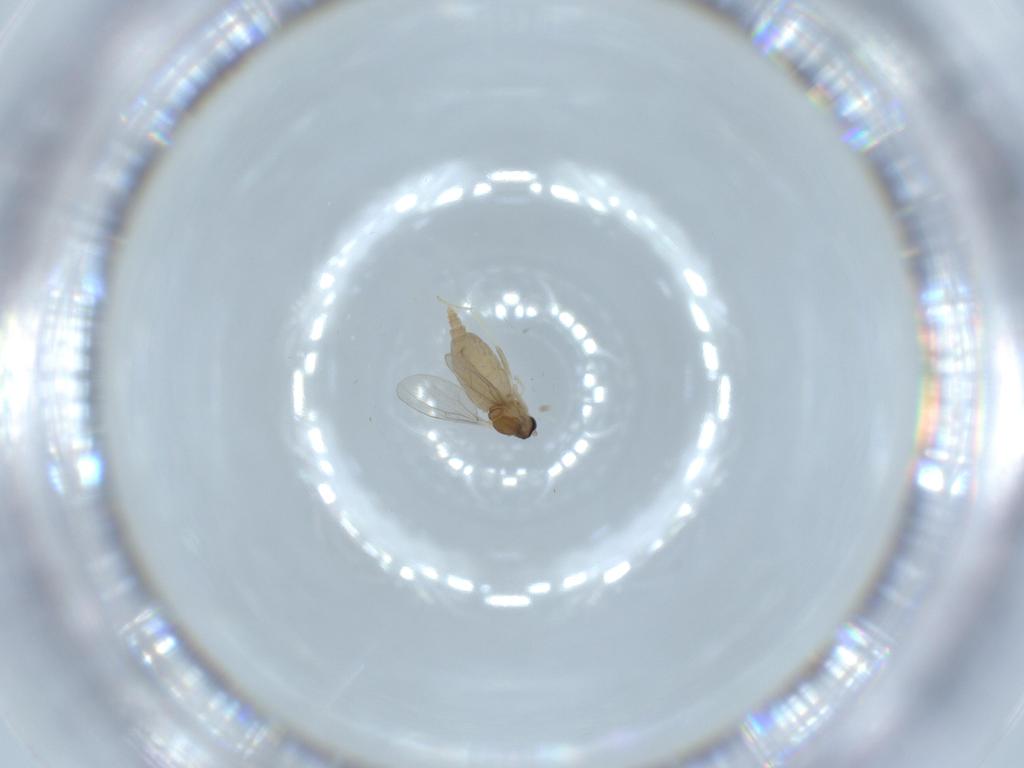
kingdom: Animalia
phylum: Arthropoda
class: Insecta
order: Diptera
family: Cecidomyiidae
